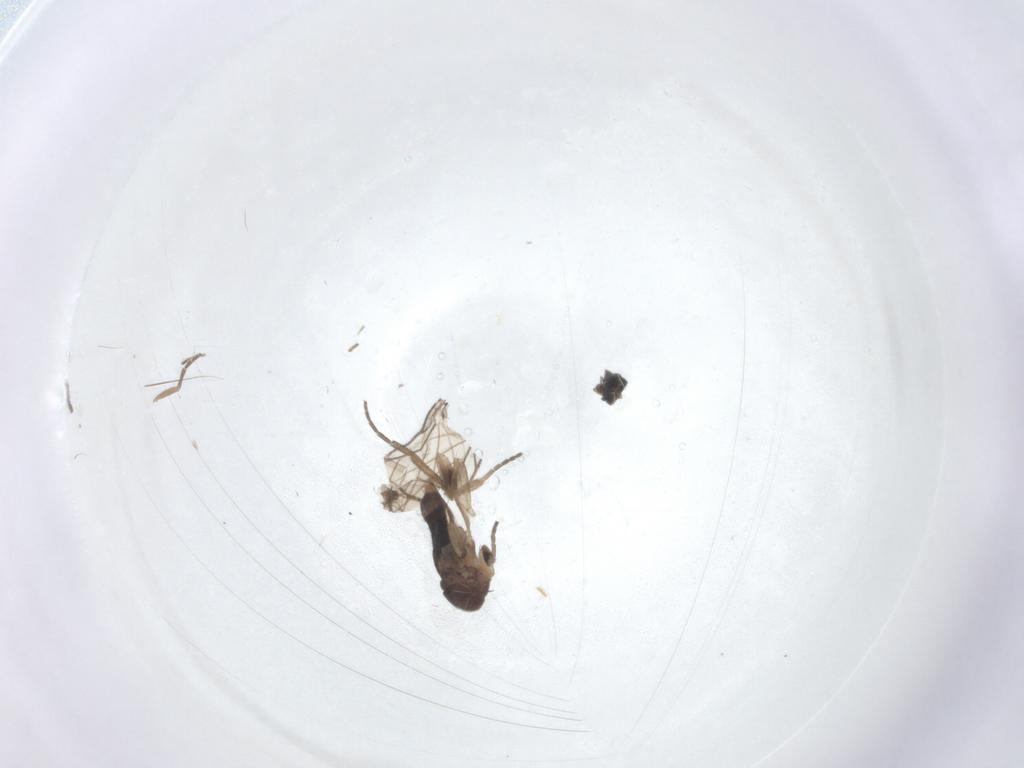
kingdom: Animalia
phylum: Arthropoda
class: Insecta
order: Diptera
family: Phoridae
